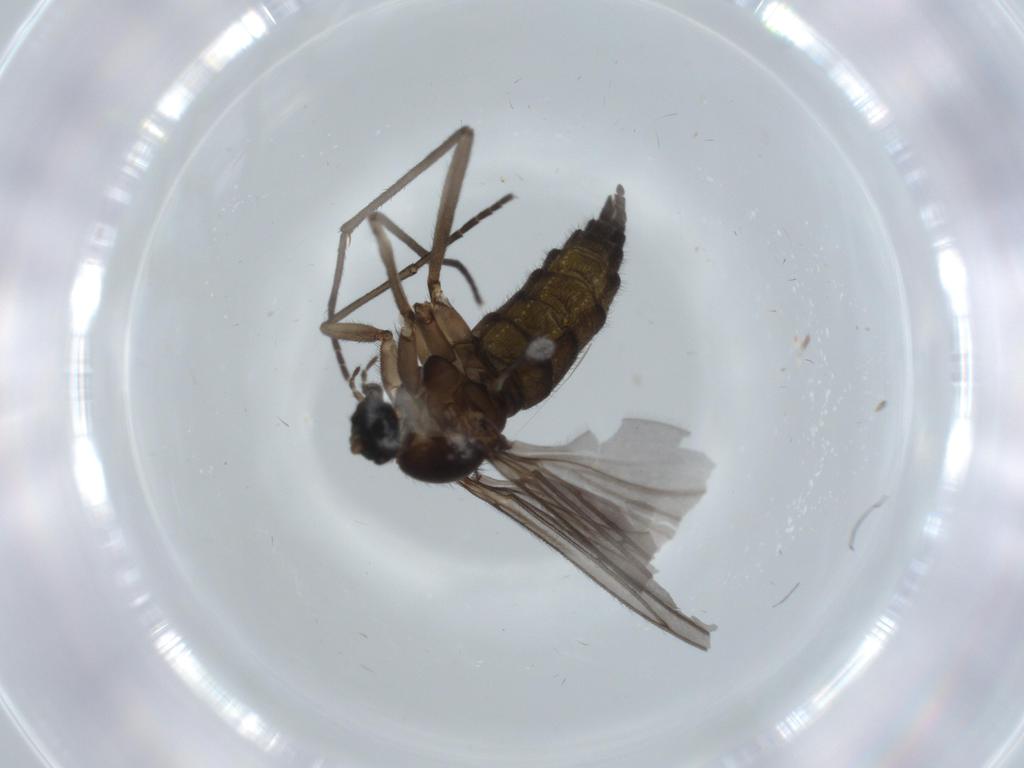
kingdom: Animalia
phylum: Arthropoda
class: Insecta
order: Diptera
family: Sciaridae
